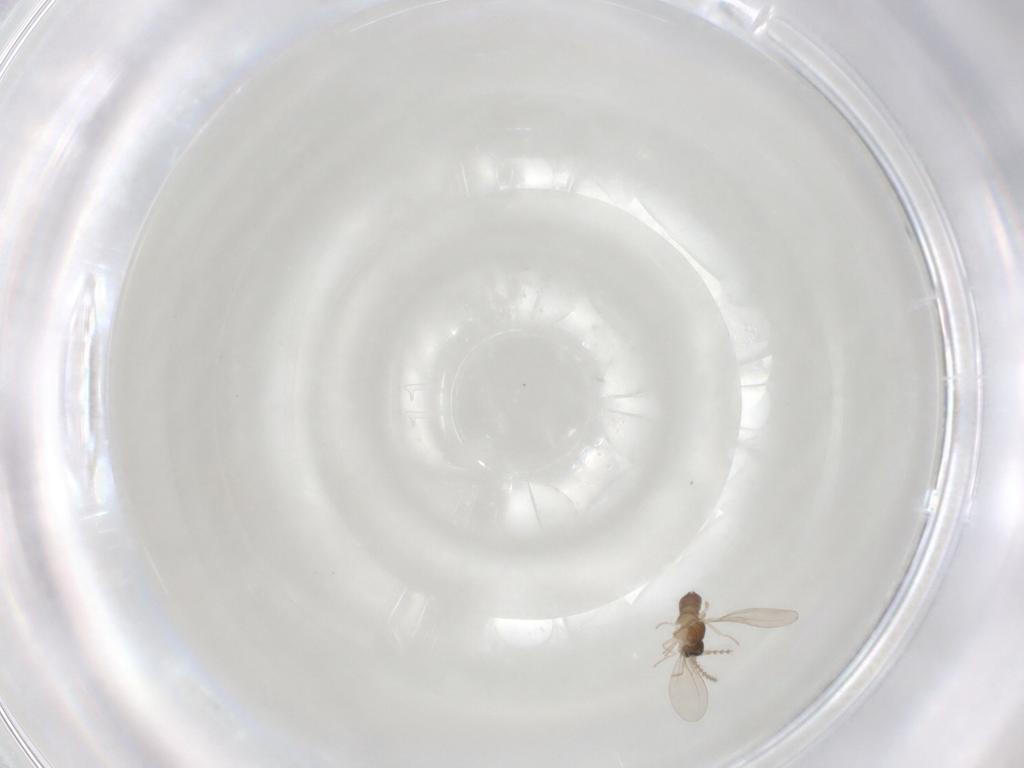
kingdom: Animalia
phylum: Arthropoda
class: Insecta
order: Diptera
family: Cecidomyiidae
